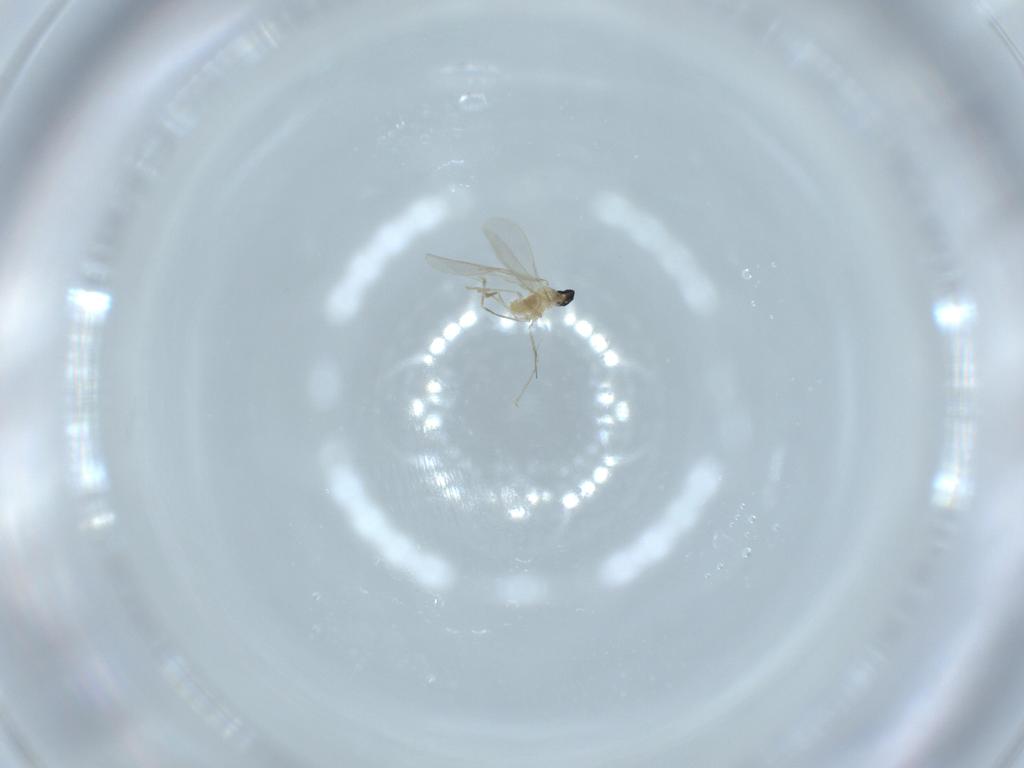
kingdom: Animalia
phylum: Arthropoda
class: Insecta
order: Diptera
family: Cecidomyiidae
